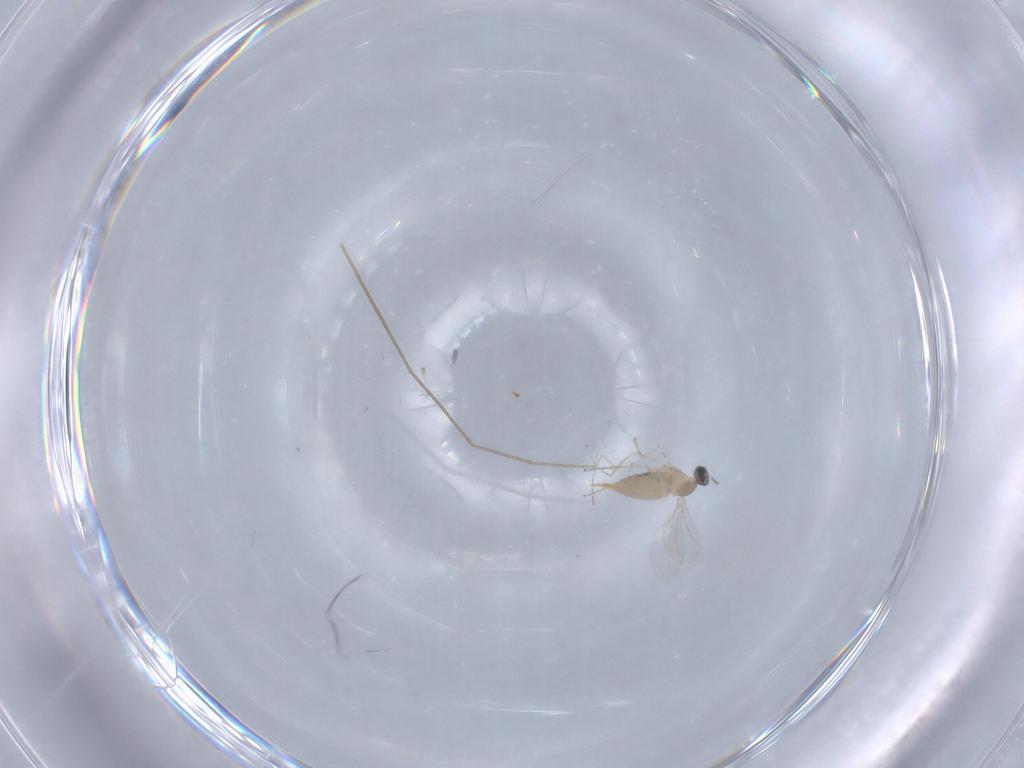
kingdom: Animalia
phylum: Arthropoda
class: Insecta
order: Diptera
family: Cecidomyiidae
